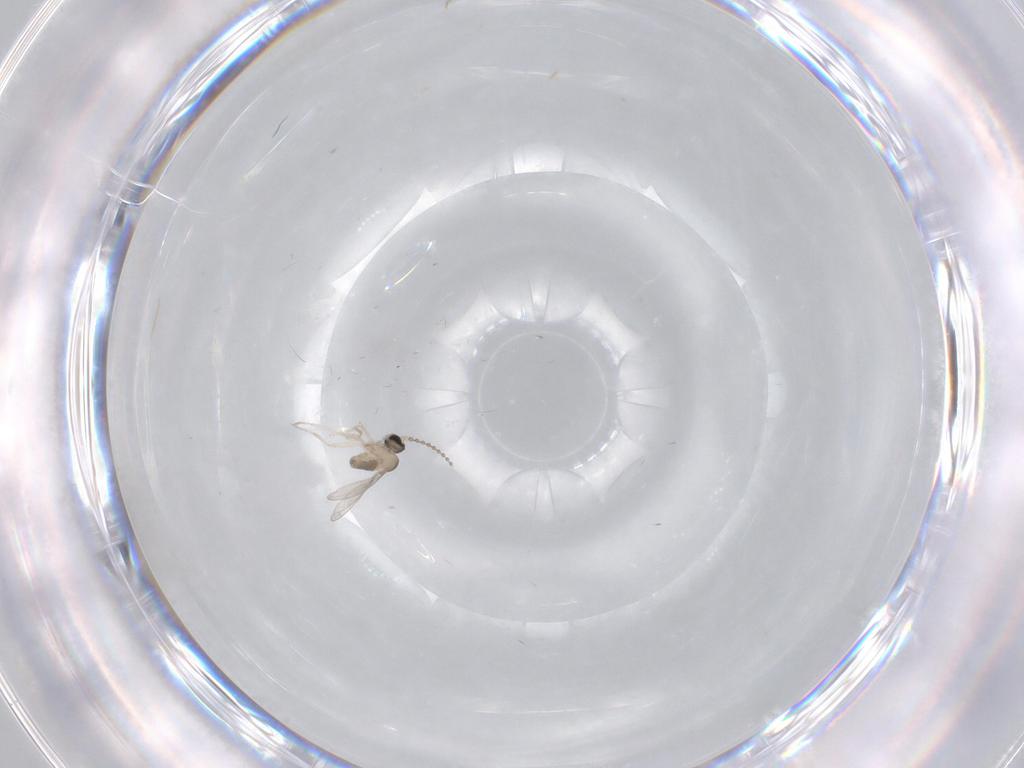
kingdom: Animalia
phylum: Arthropoda
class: Insecta
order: Diptera
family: Cecidomyiidae
